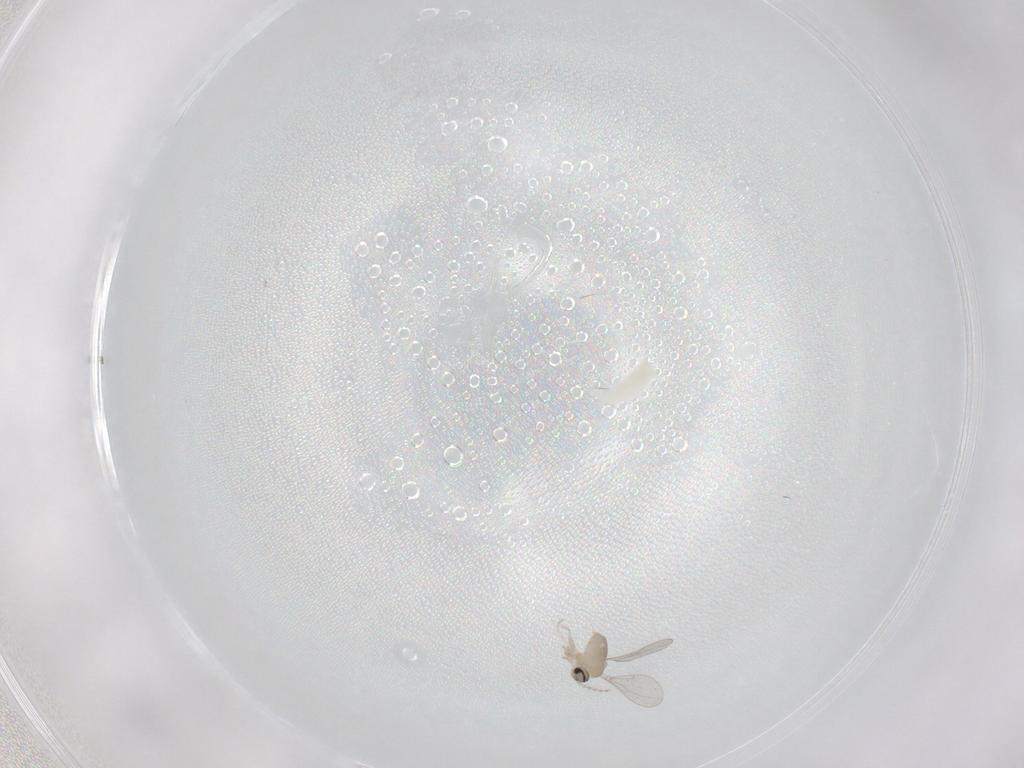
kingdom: Animalia
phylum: Arthropoda
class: Insecta
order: Diptera
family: Cecidomyiidae
